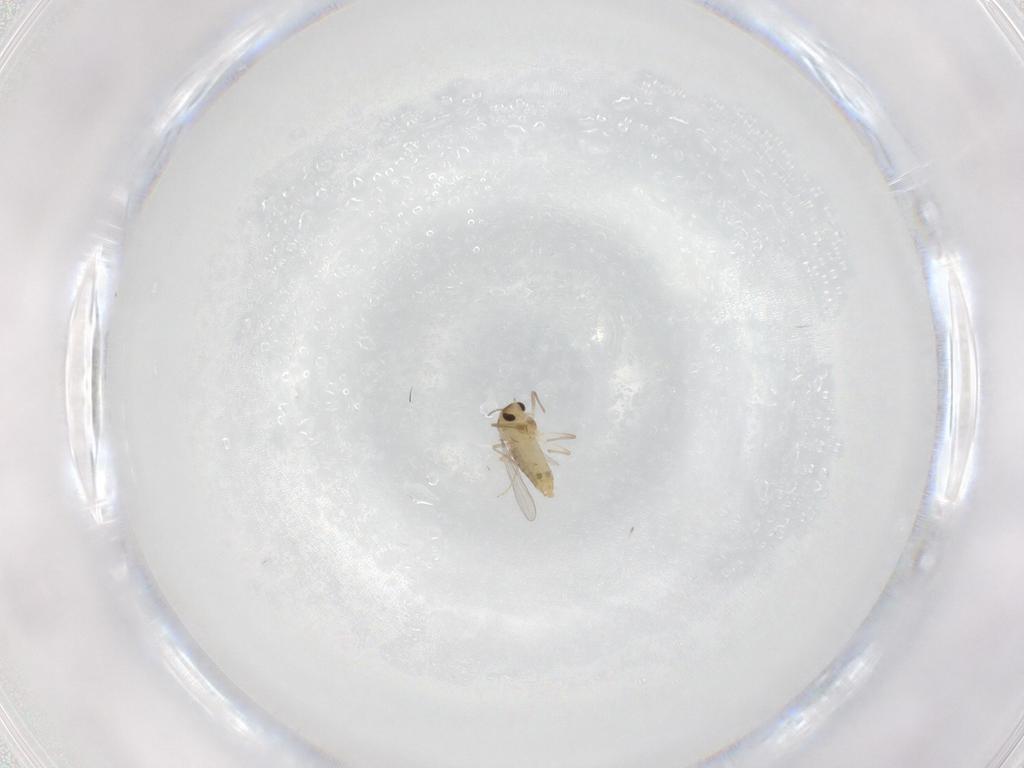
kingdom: Animalia
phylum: Arthropoda
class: Insecta
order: Diptera
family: Chironomidae
